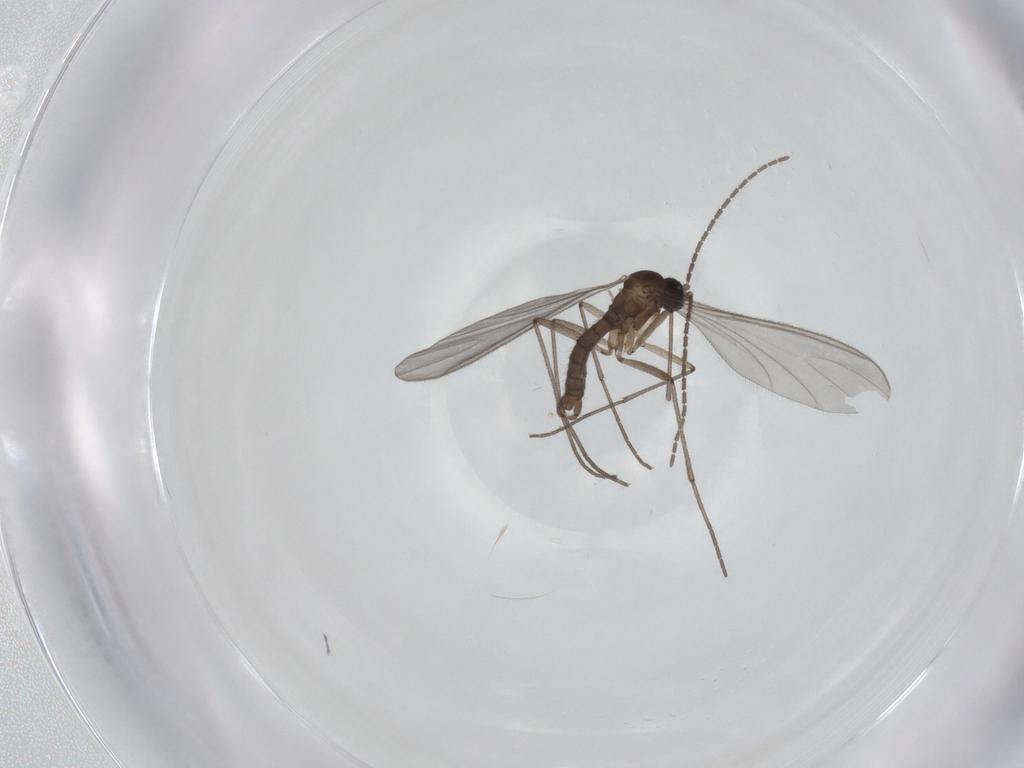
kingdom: Animalia
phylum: Arthropoda
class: Insecta
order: Diptera
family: Sciaridae
